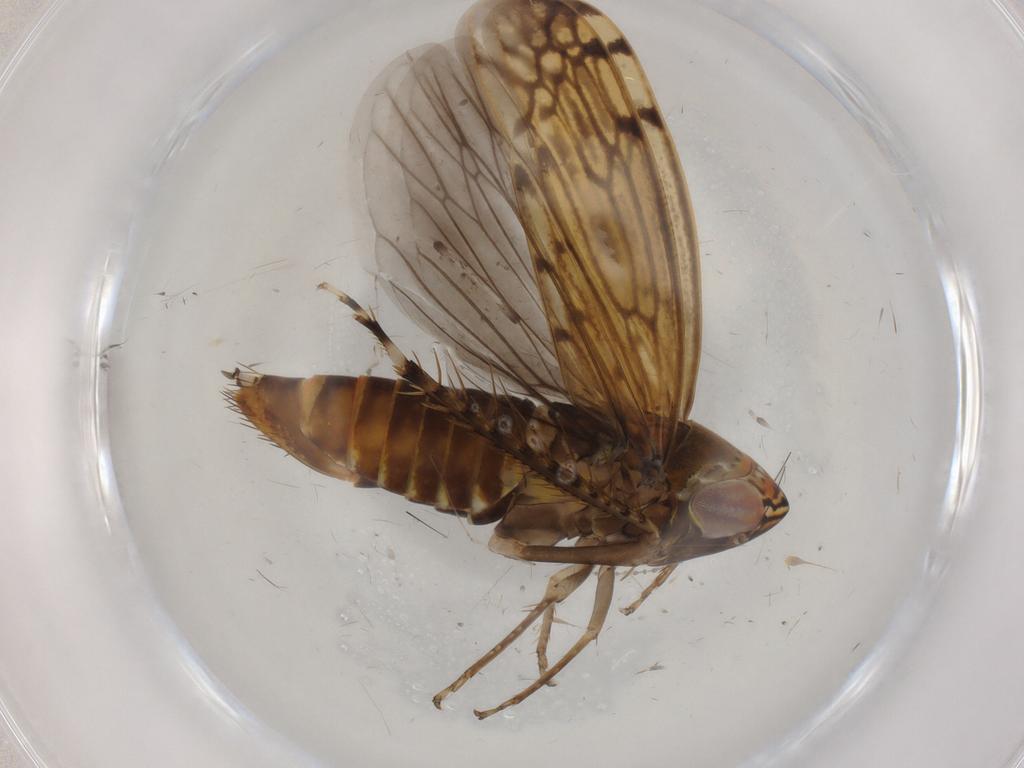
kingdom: Animalia
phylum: Arthropoda
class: Insecta
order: Hemiptera
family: Cicadellidae
